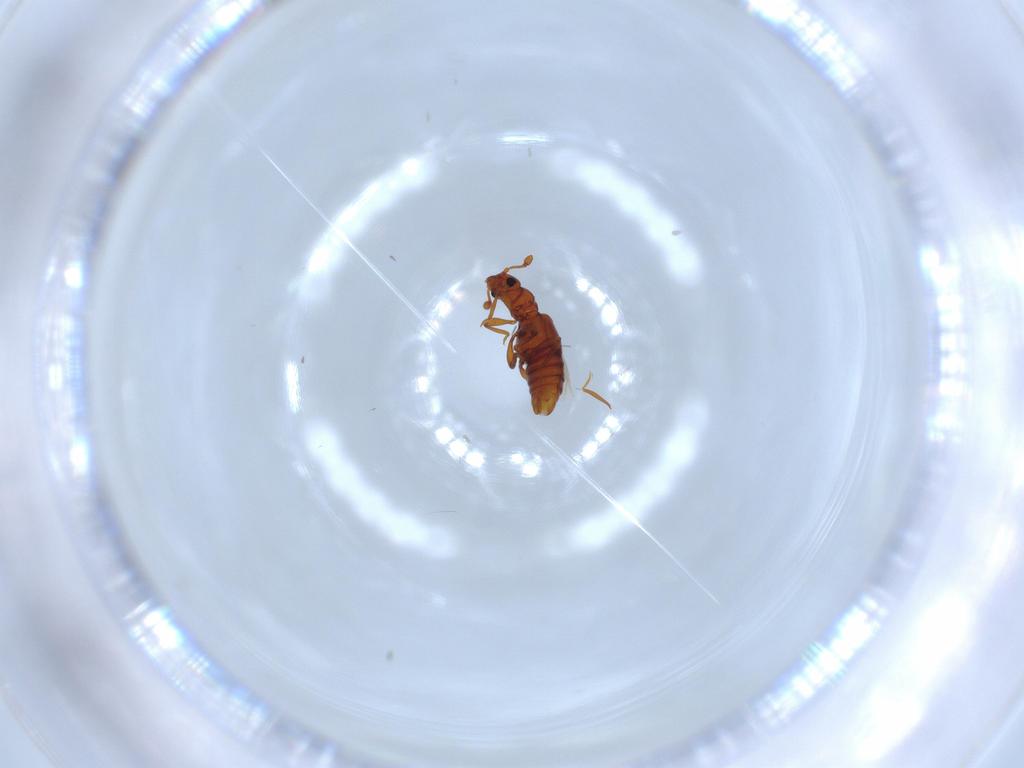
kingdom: Animalia
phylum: Arthropoda
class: Insecta
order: Coleoptera
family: Staphylinidae
